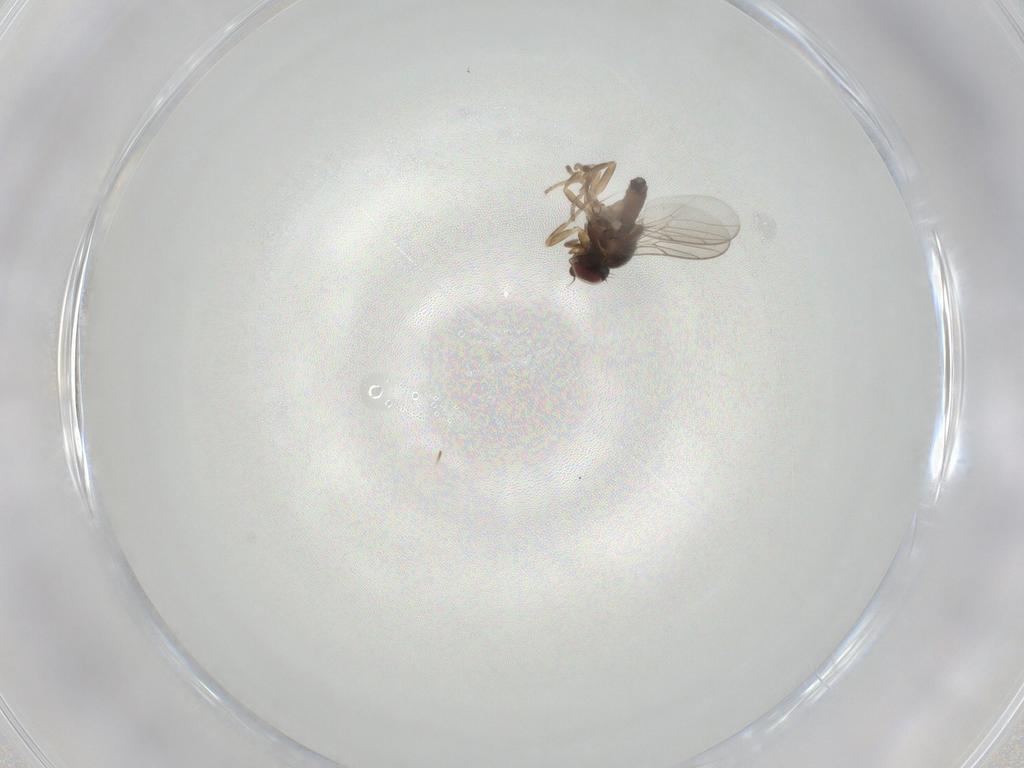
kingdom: Animalia
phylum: Arthropoda
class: Insecta
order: Diptera
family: Chloropidae
